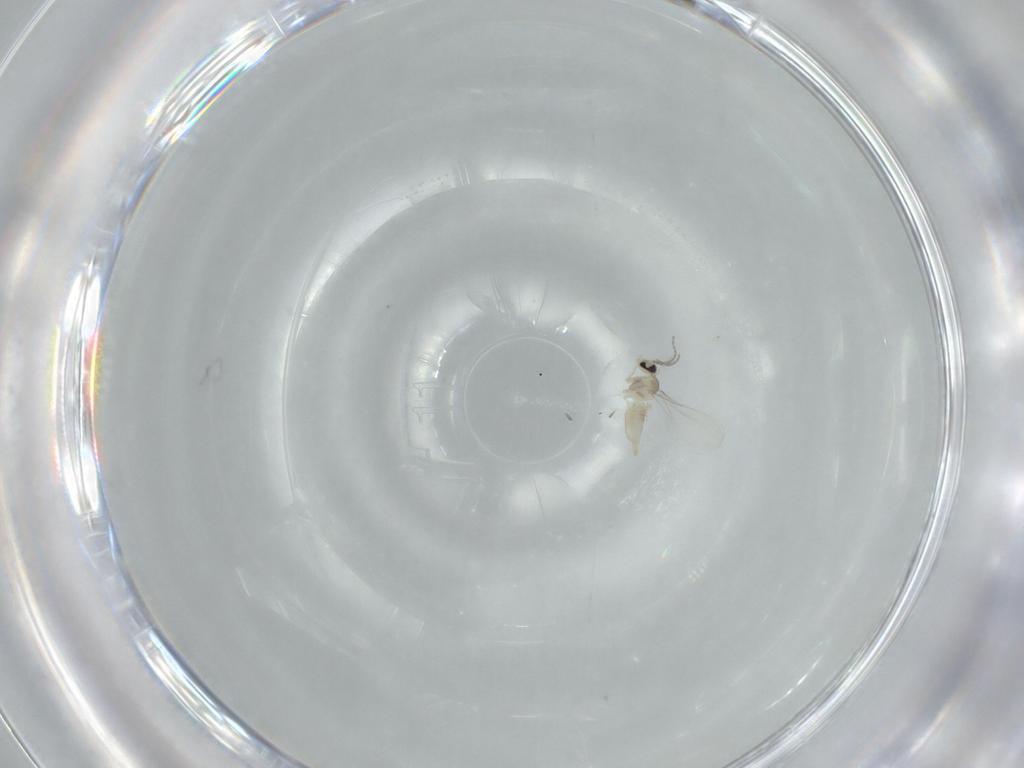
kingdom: Animalia
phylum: Arthropoda
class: Insecta
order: Diptera
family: Cecidomyiidae
